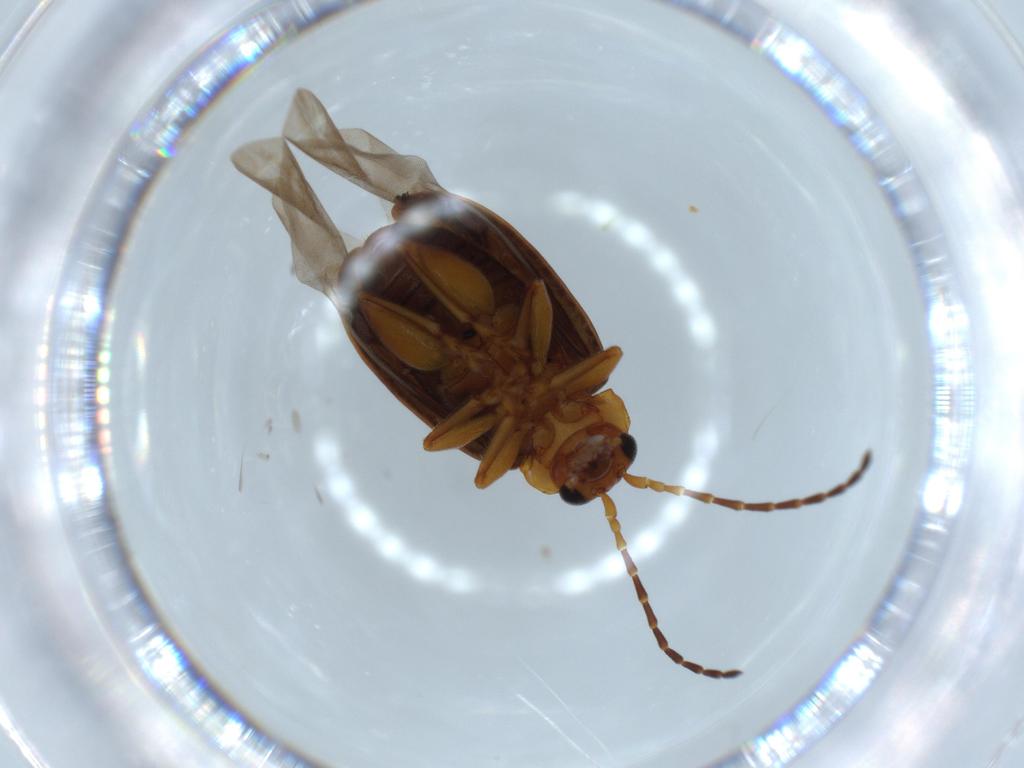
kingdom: Animalia
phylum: Arthropoda
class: Insecta
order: Coleoptera
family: Chrysomelidae
